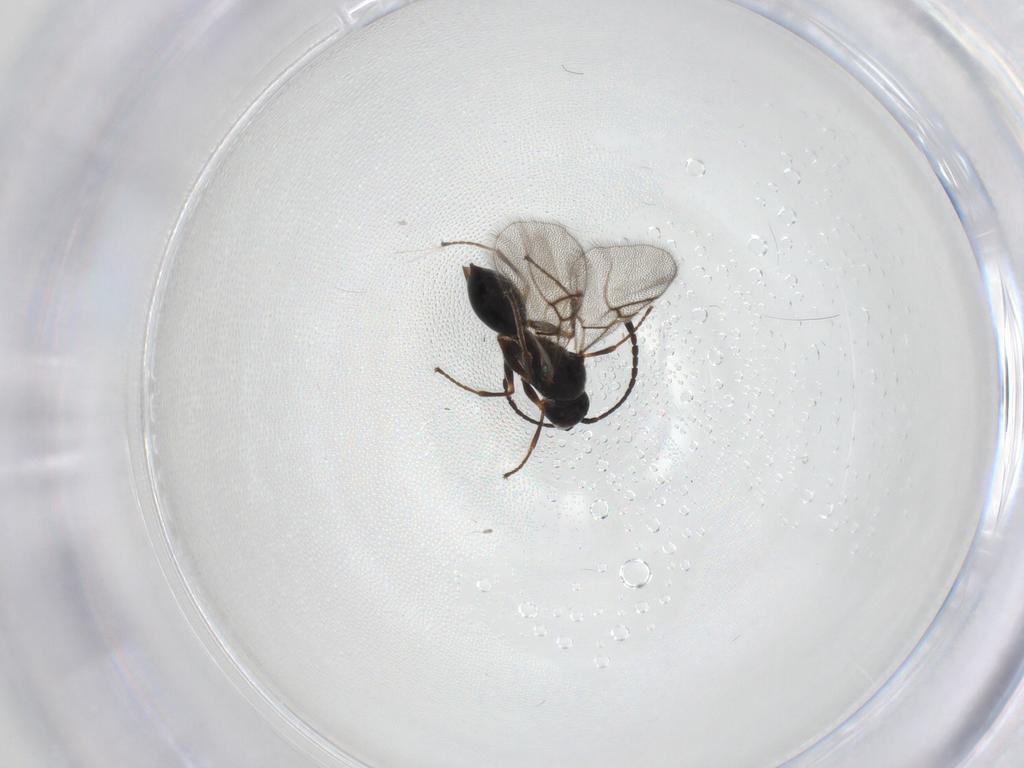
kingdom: Animalia
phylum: Arthropoda
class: Insecta
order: Hymenoptera
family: Figitidae
